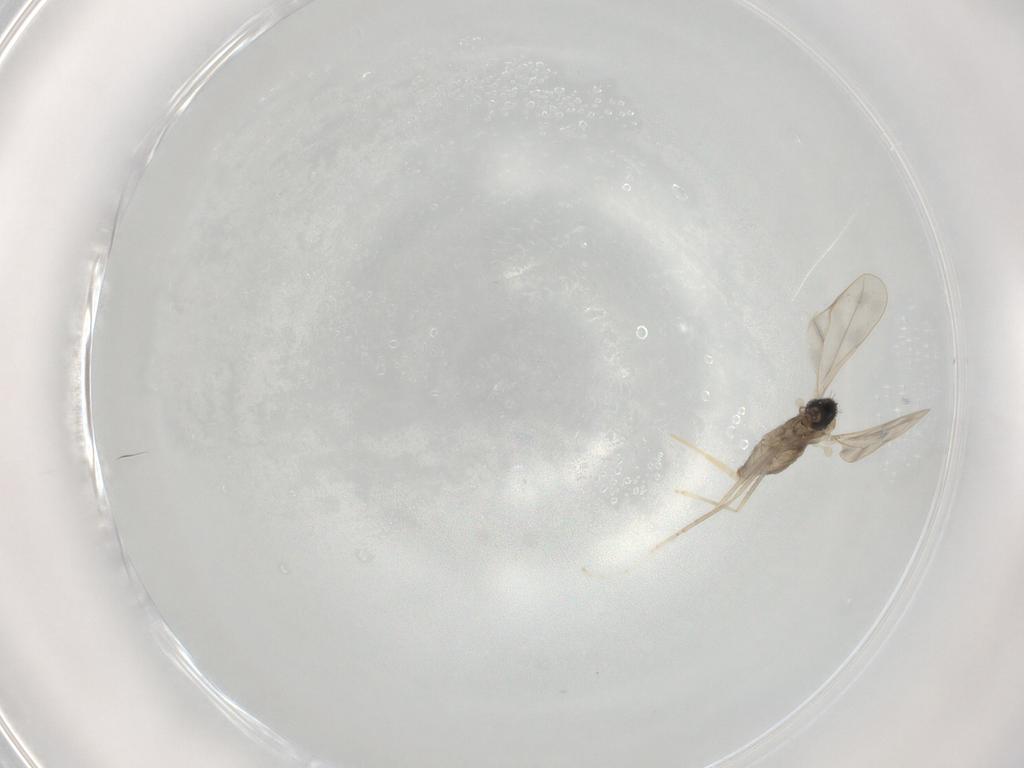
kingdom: Animalia
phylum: Arthropoda
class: Insecta
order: Diptera
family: Cecidomyiidae
